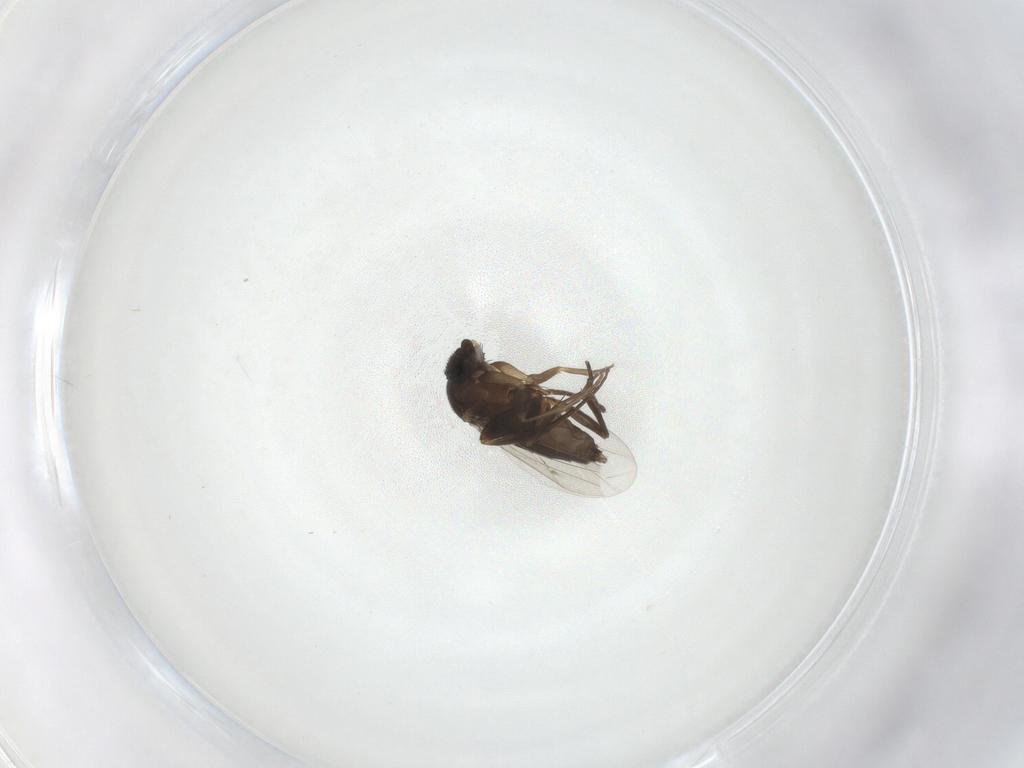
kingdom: Animalia
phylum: Arthropoda
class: Insecta
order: Diptera
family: Phoridae
